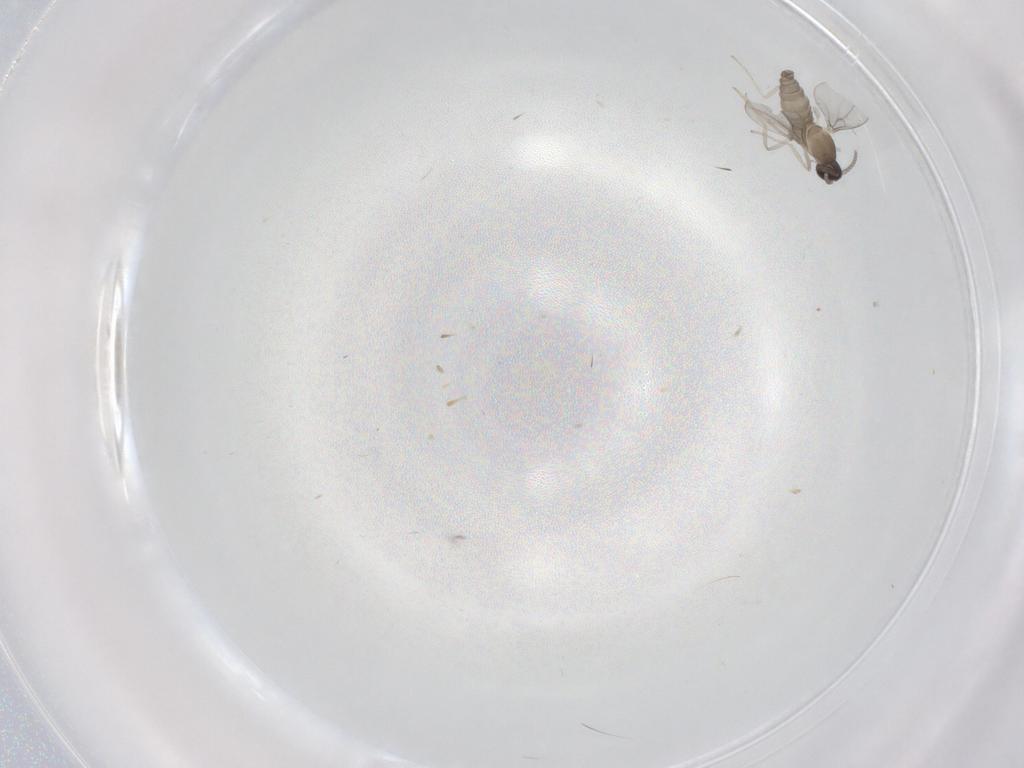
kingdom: Animalia
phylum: Arthropoda
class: Insecta
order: Diptera
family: Cecidomyiidae
